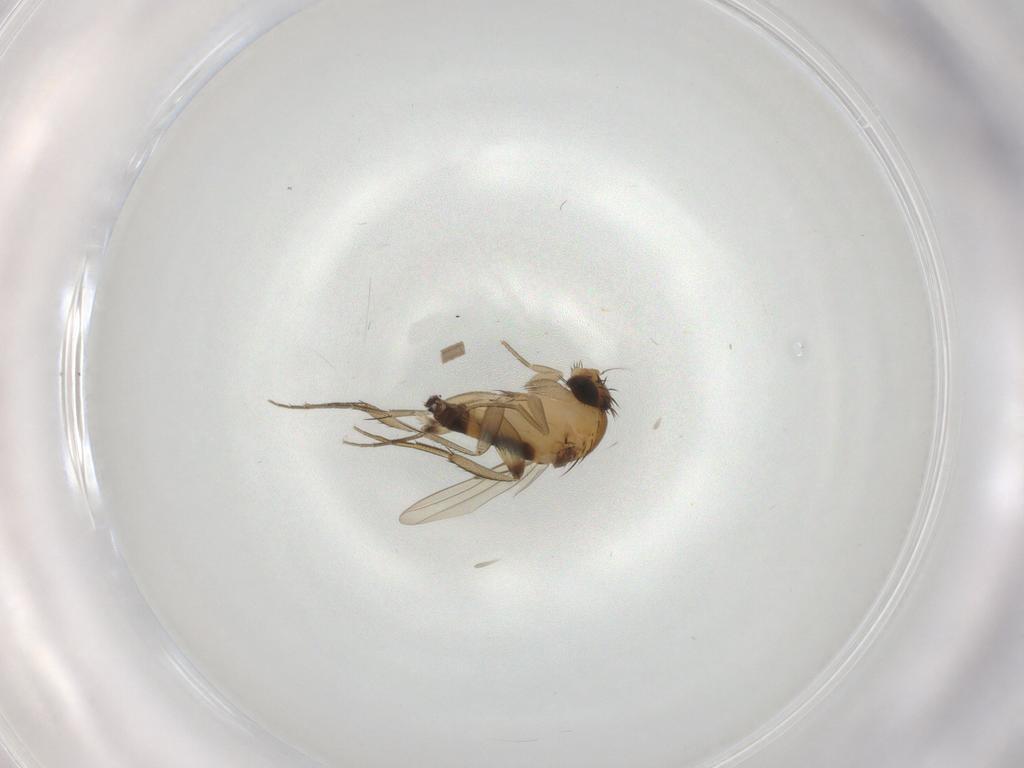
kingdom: Animalia
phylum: Arthropoda
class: Insecta
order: Diptera
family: Phoridae
